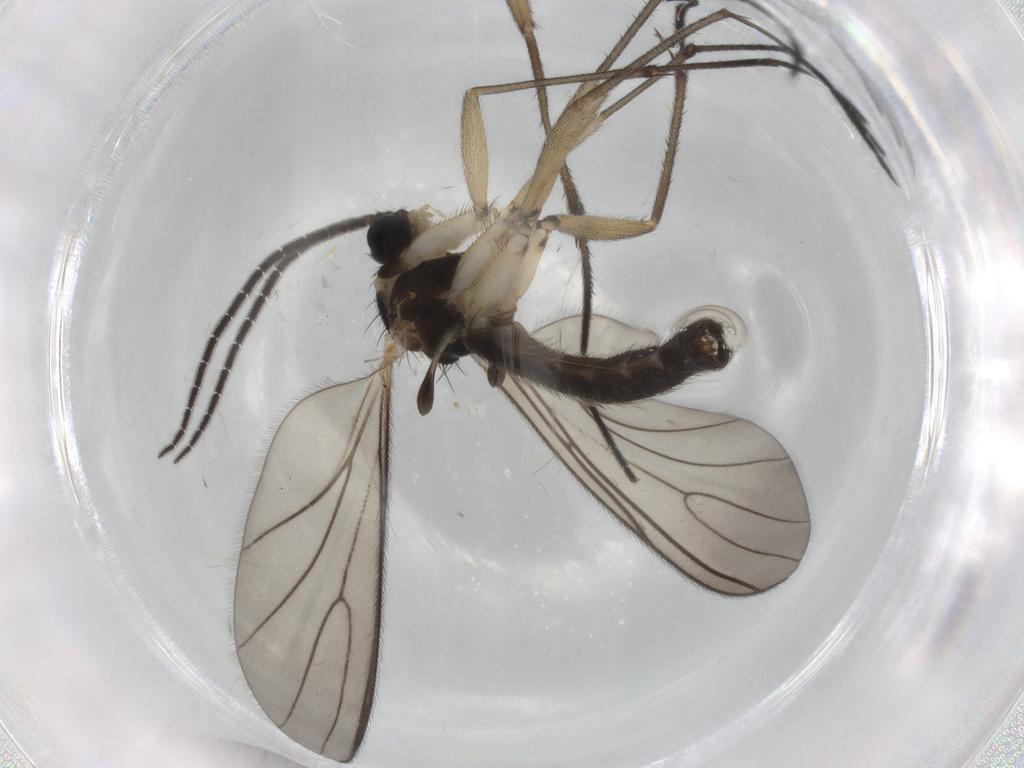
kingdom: Animalia
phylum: Arthropoda
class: Insecta
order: Diptera
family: Sciaridae
